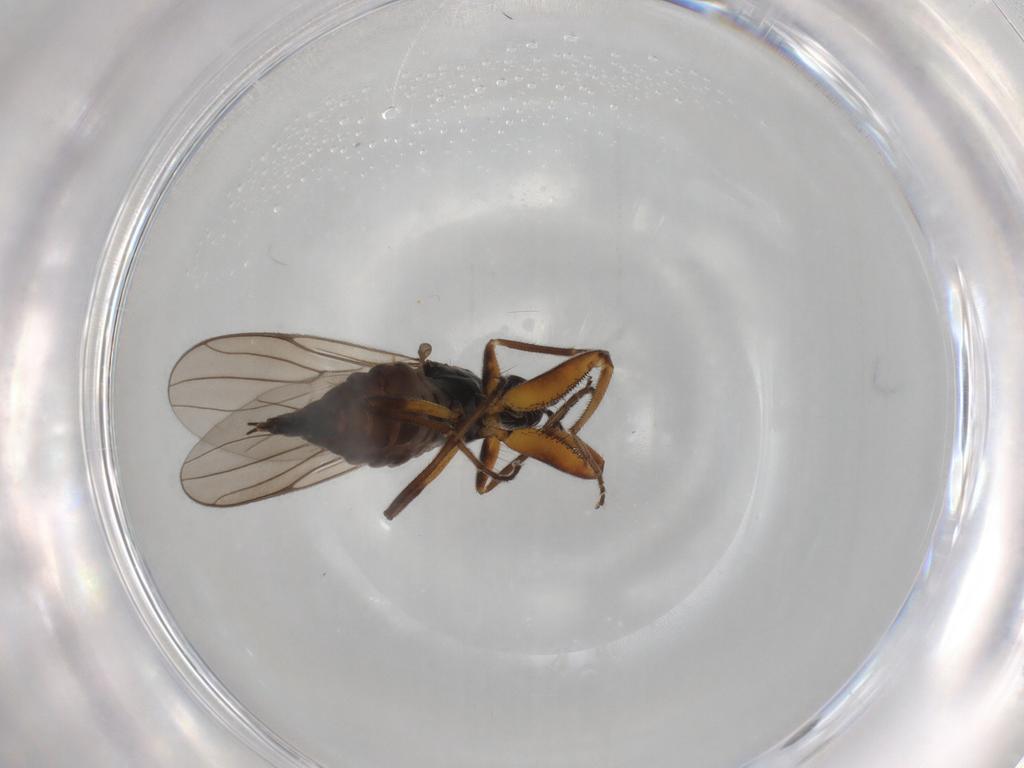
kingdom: Animalia
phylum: Arthropoda
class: Insecta
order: Diptera
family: Hybotidae
